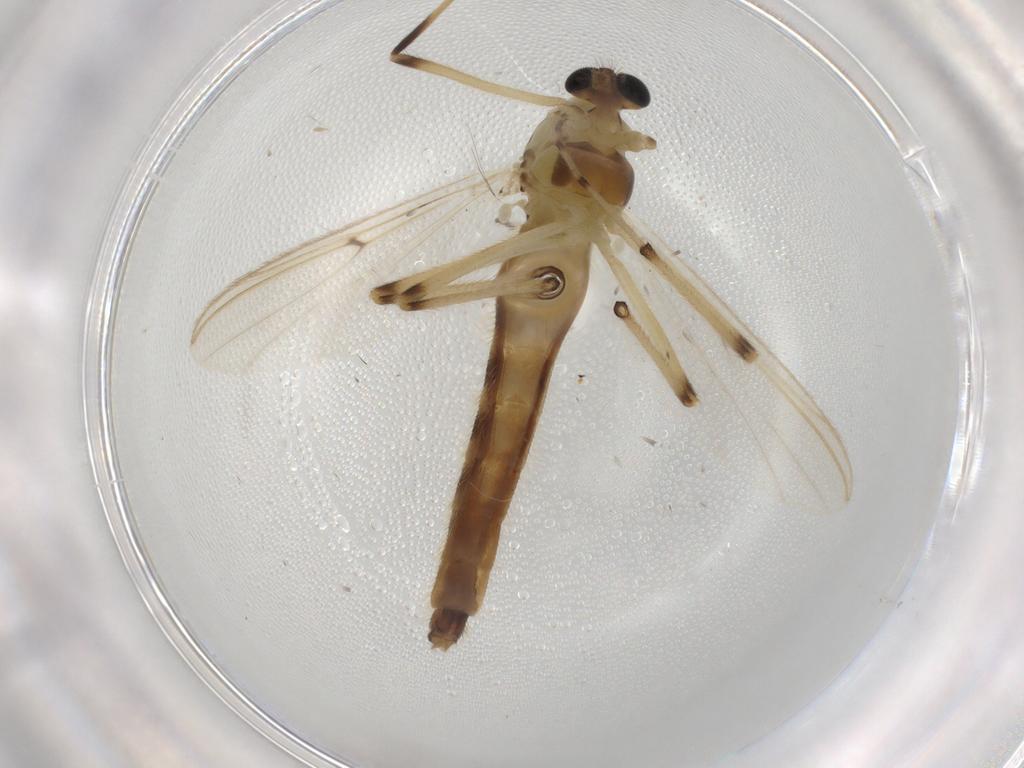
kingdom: Animalia
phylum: Arthropoda
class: Insecta
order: Diptera
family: Chironomidae
